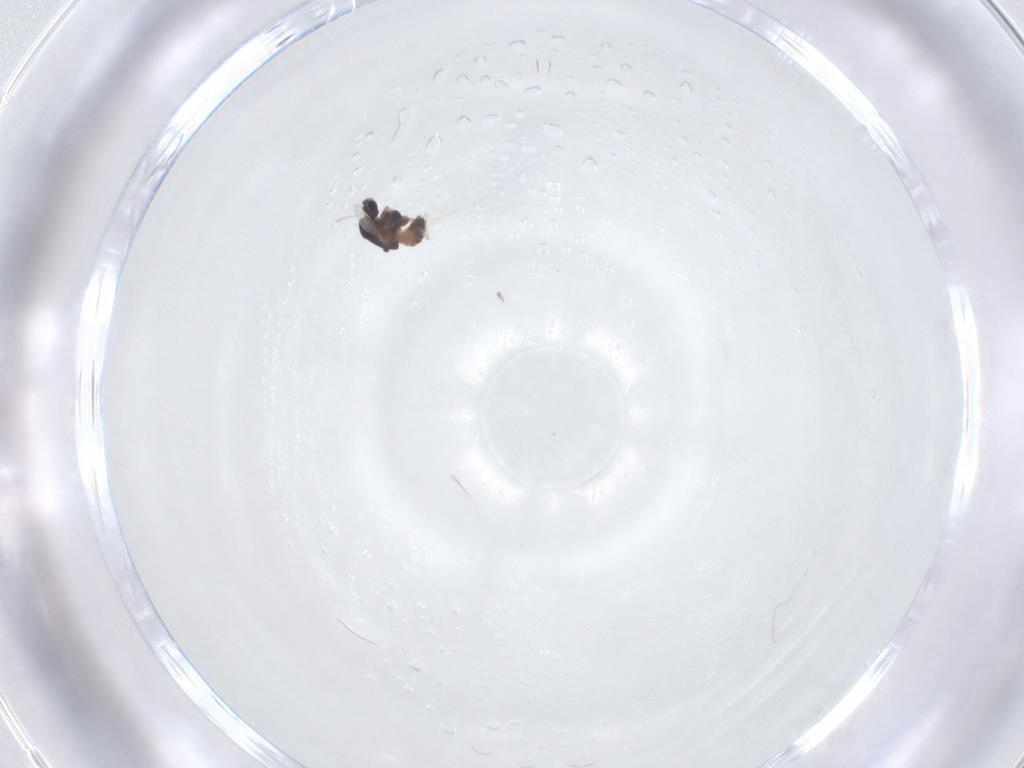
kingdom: Animalia
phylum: Arthropoda
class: Insecta
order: Diptera
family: Chironomidae
